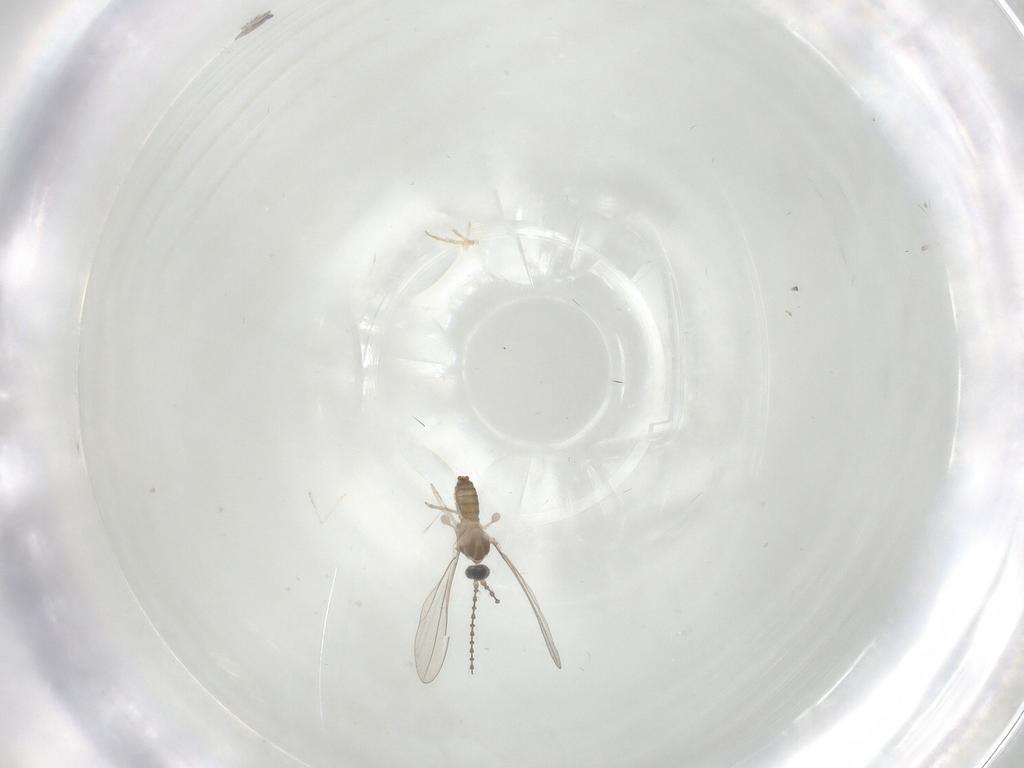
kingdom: Animalia
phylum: Arthropoda
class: Insecta
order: Diptera
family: Cecidomyiidae
